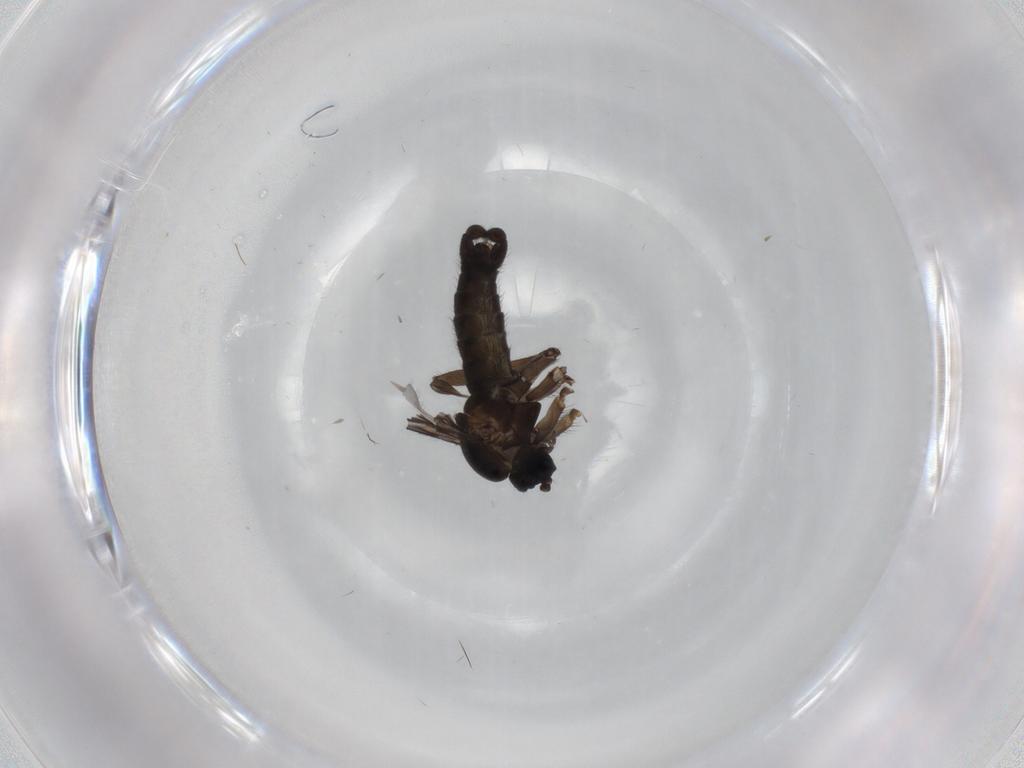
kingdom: Animalia
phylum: Arthropoda
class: Insecta
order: Diptera
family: Sciaridae
